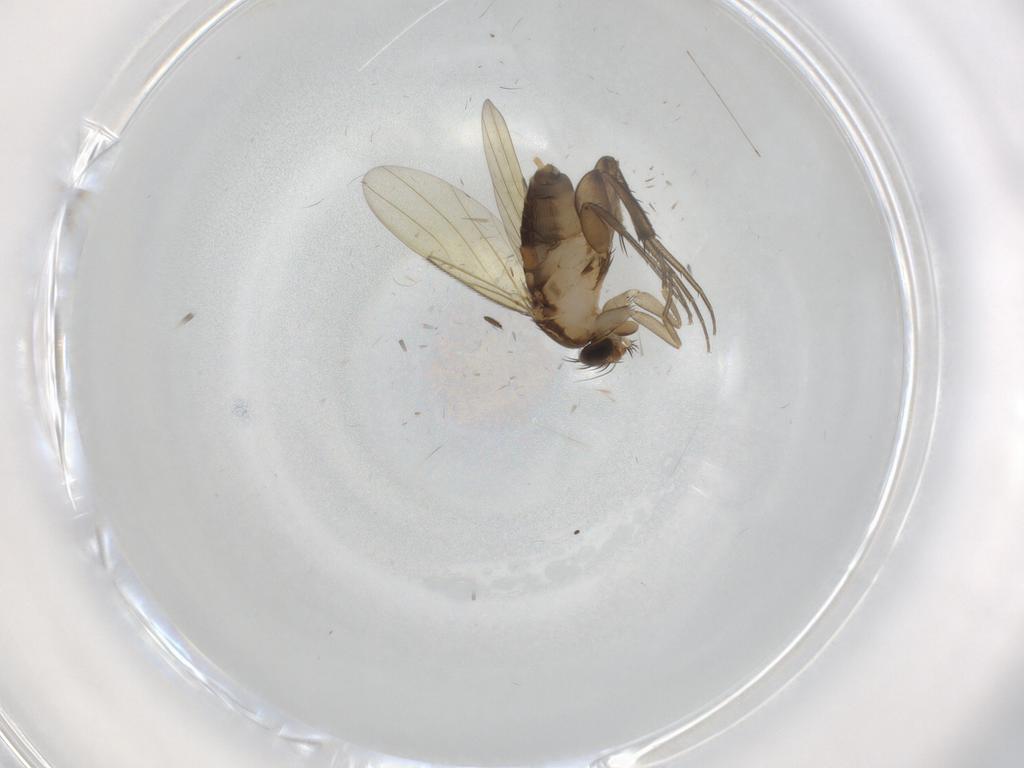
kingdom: Animalia
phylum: Arthropoda
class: Insecta
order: Diptera
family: Phoridae
